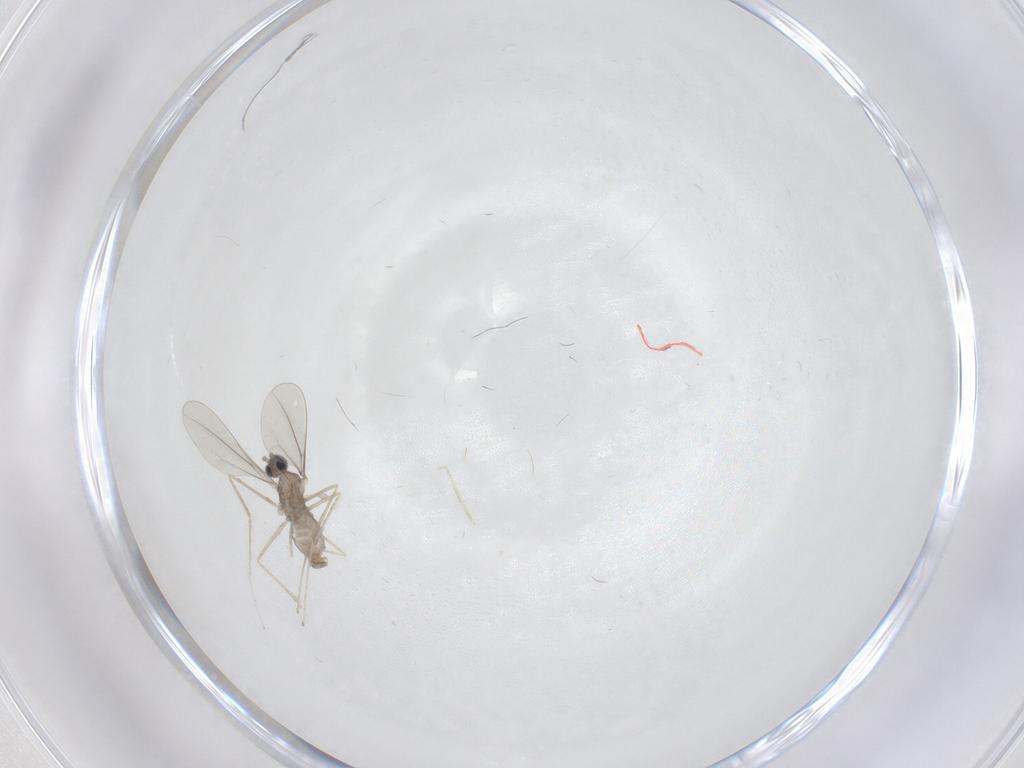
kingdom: Animalia
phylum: Arthropoda
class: Insecta
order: Diptera
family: Cecidomyiidae
